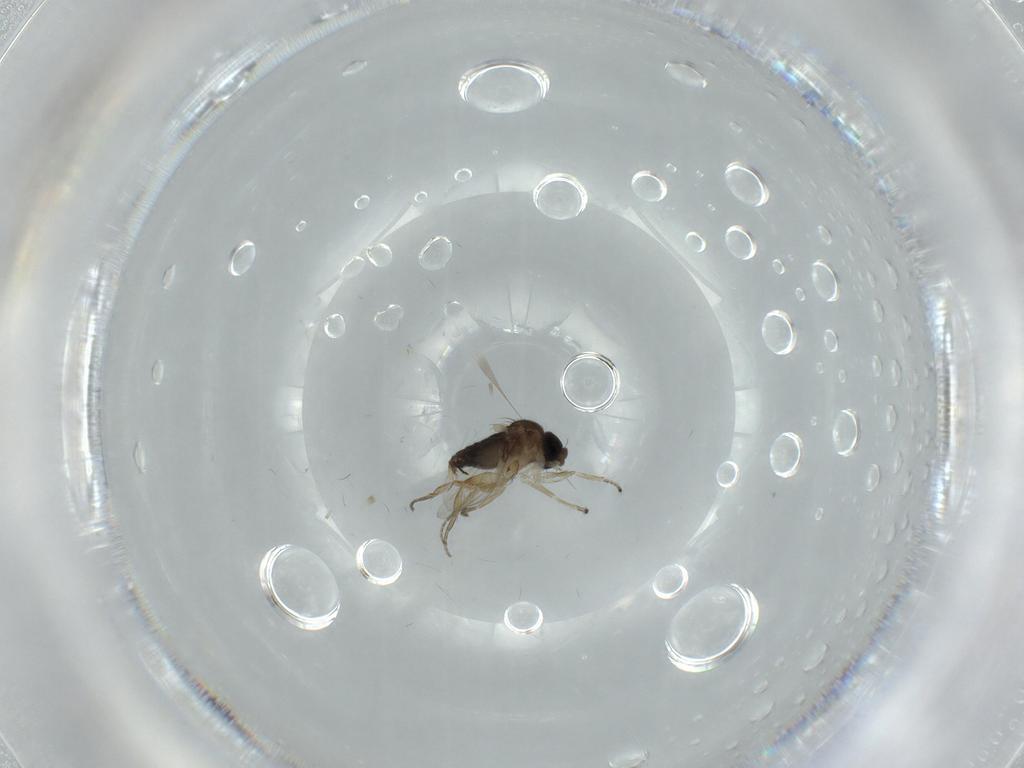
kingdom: Animalia
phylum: Arthropoda
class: Insecta
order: Diptera
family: Phoridae
